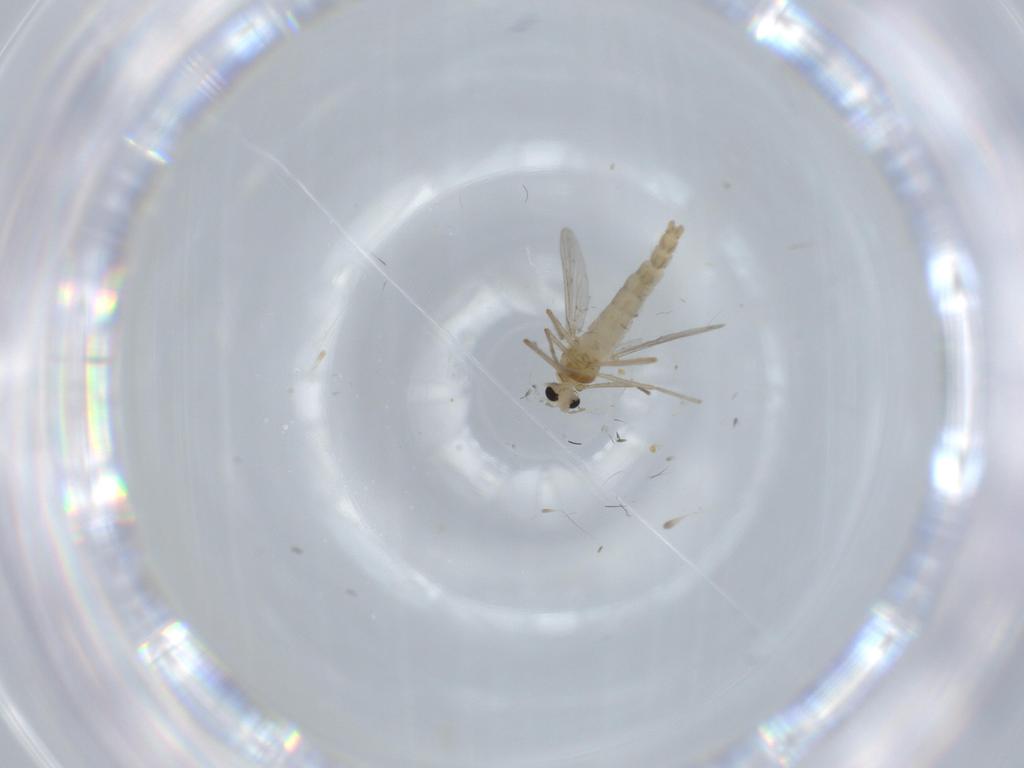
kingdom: Animalia
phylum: Arthropoda
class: Insecta
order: Diptera
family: Chironomidae
